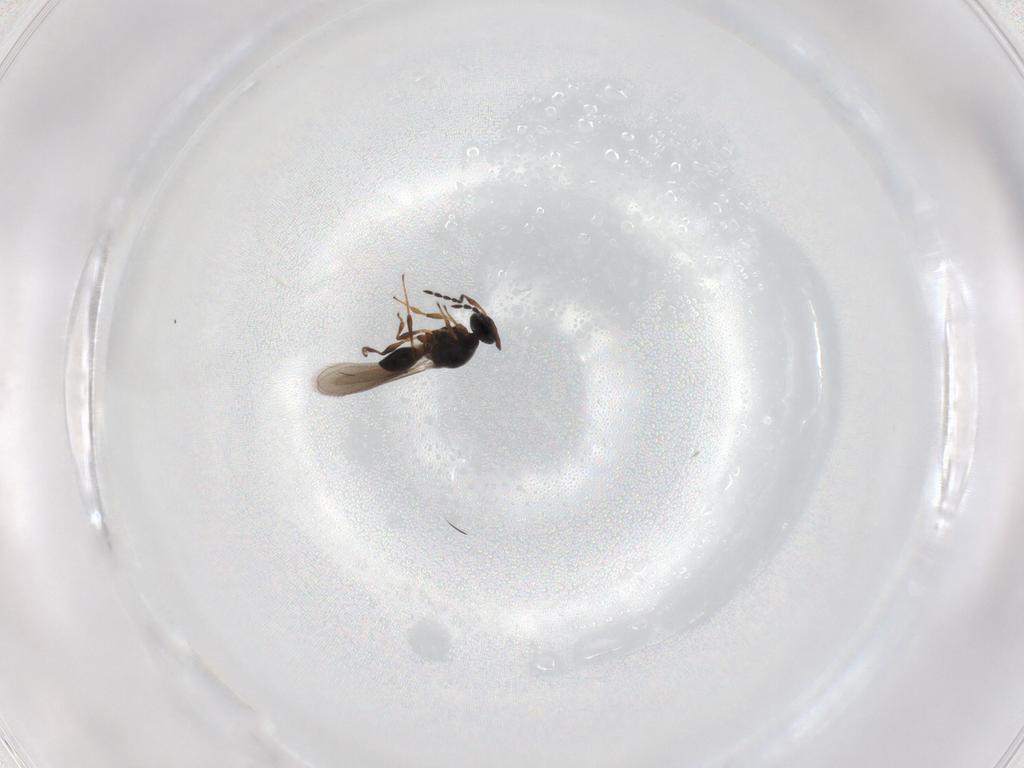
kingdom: Animalia
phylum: Arthropoda
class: Insecta
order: Hymenoptera
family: Platygastridae
